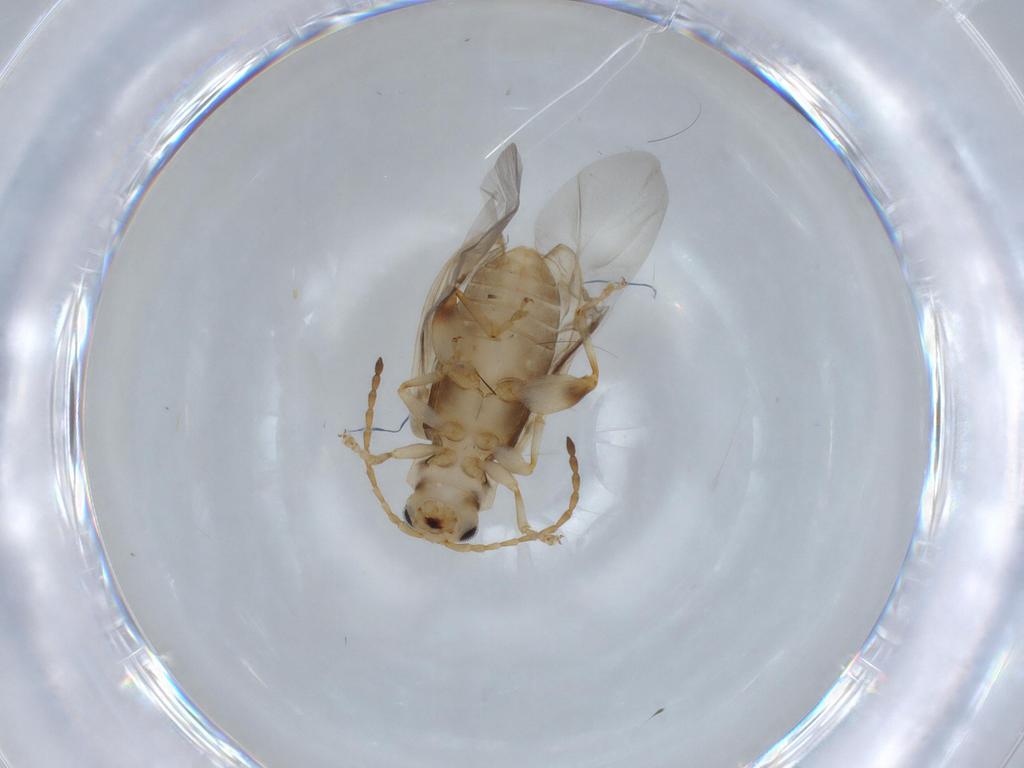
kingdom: Animalia
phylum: Arthropoda
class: Insecta
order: Coleoptera
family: Chrysomelidae
